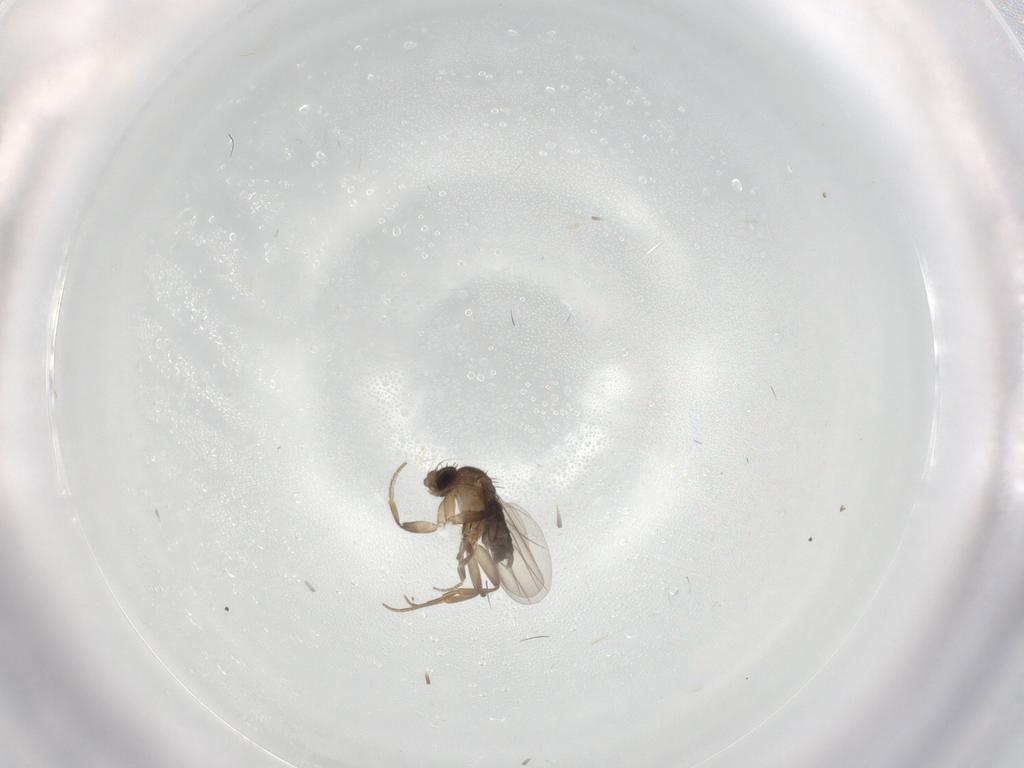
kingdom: Animalia
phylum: Arthropoda
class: Insecta
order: Diptera
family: Phoridae
